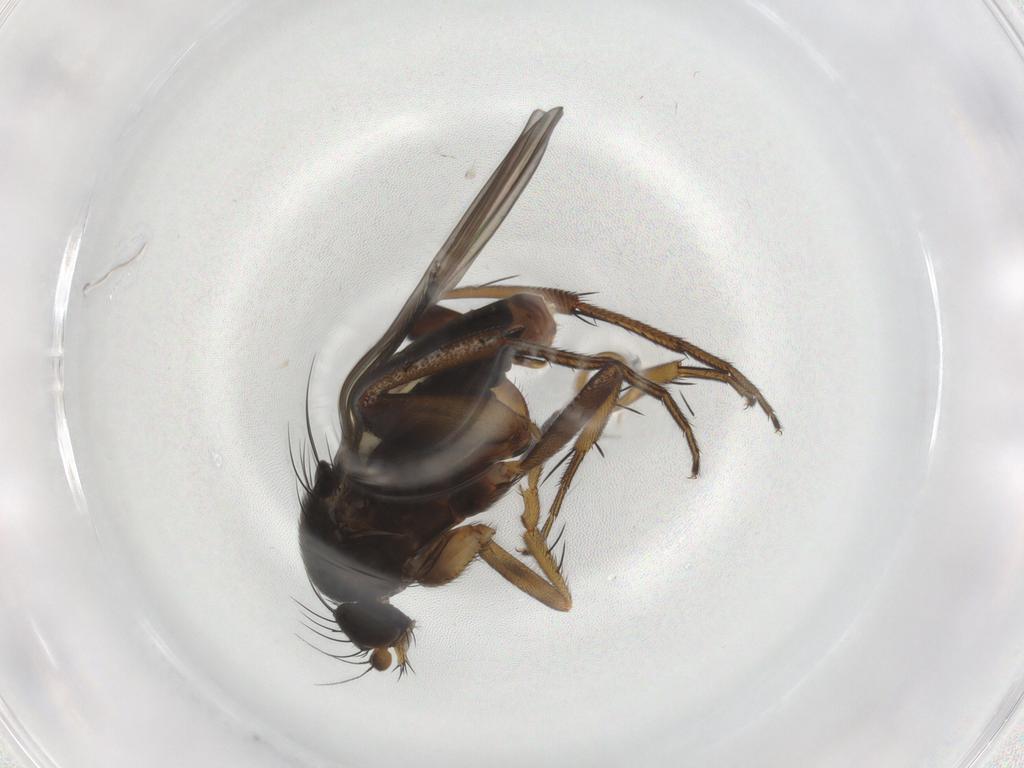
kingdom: Animalia
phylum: Arthropoda
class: Insecta
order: Diptera
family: Phoridae
